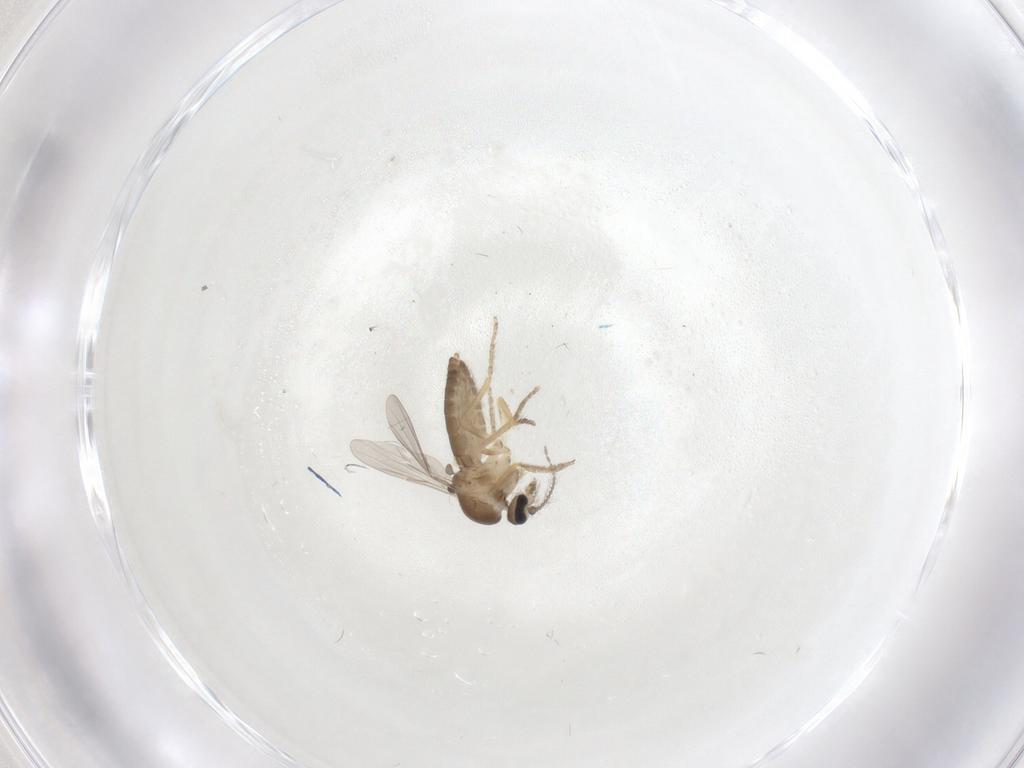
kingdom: Animalia
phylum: Arthropoda
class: Insecta
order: Diptera
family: Ceratopogonidae
